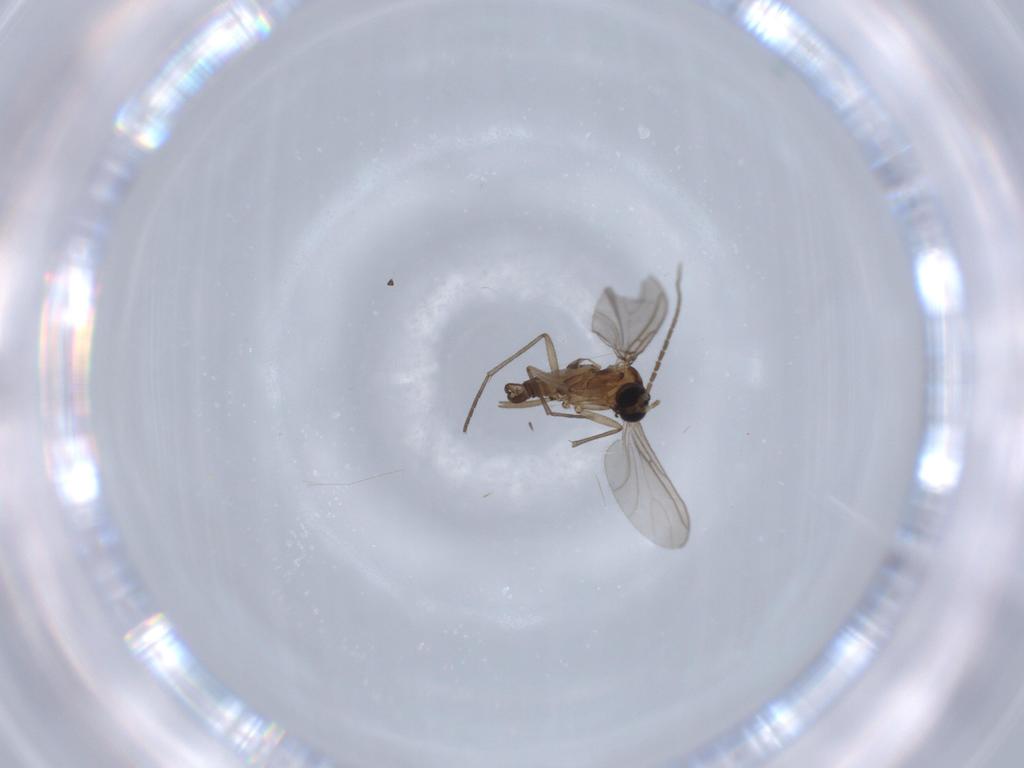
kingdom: Animalia
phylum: Arthropoda
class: Insecta
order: Diptera
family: Sciaridae
